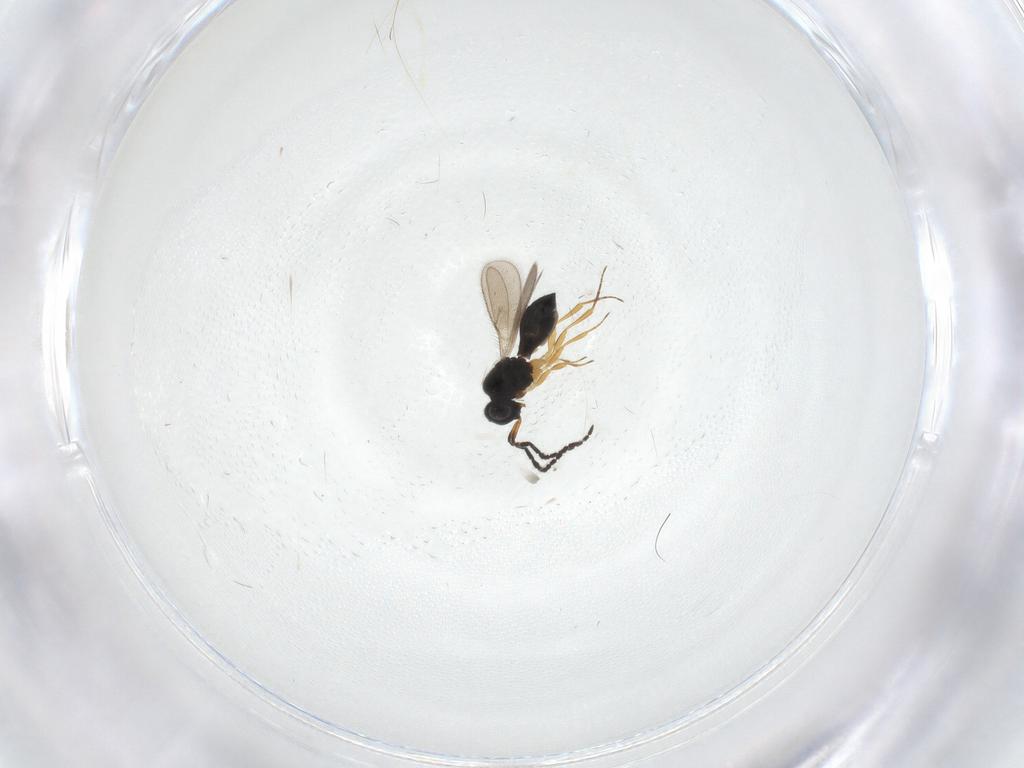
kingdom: Animalia
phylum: Arthropoda
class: Insecta
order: Hymenoptera
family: Scelionidae
